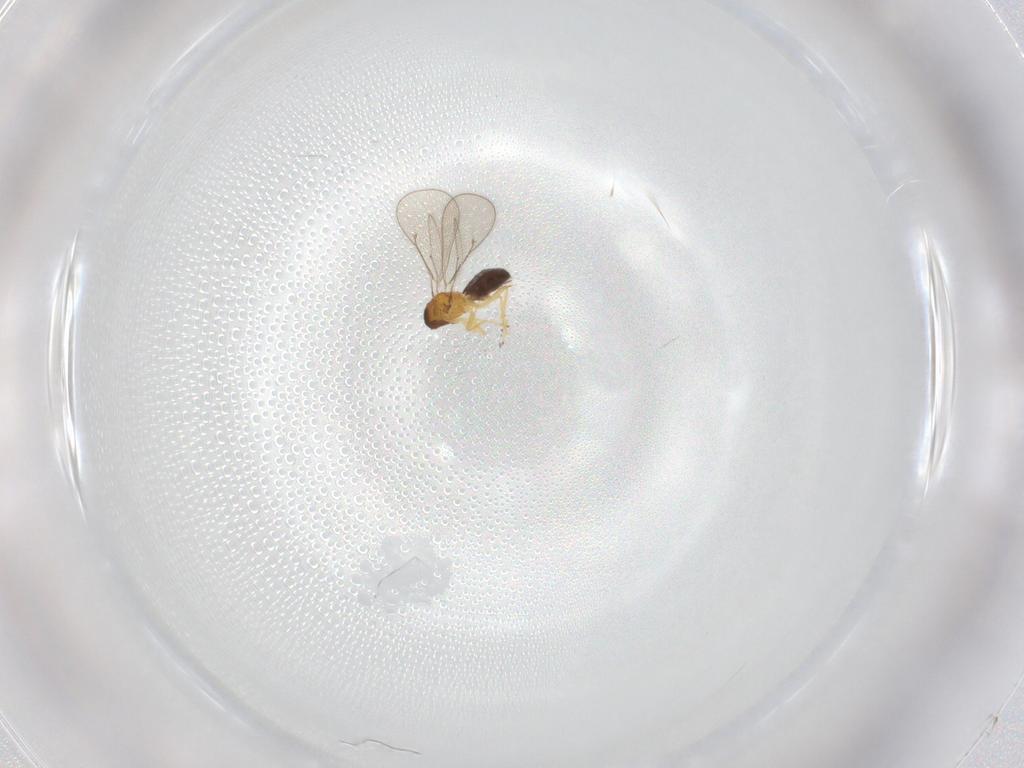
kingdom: Animalia
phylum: Arthropoda
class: Insecta
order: Hymenoptera
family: Eulophidae
